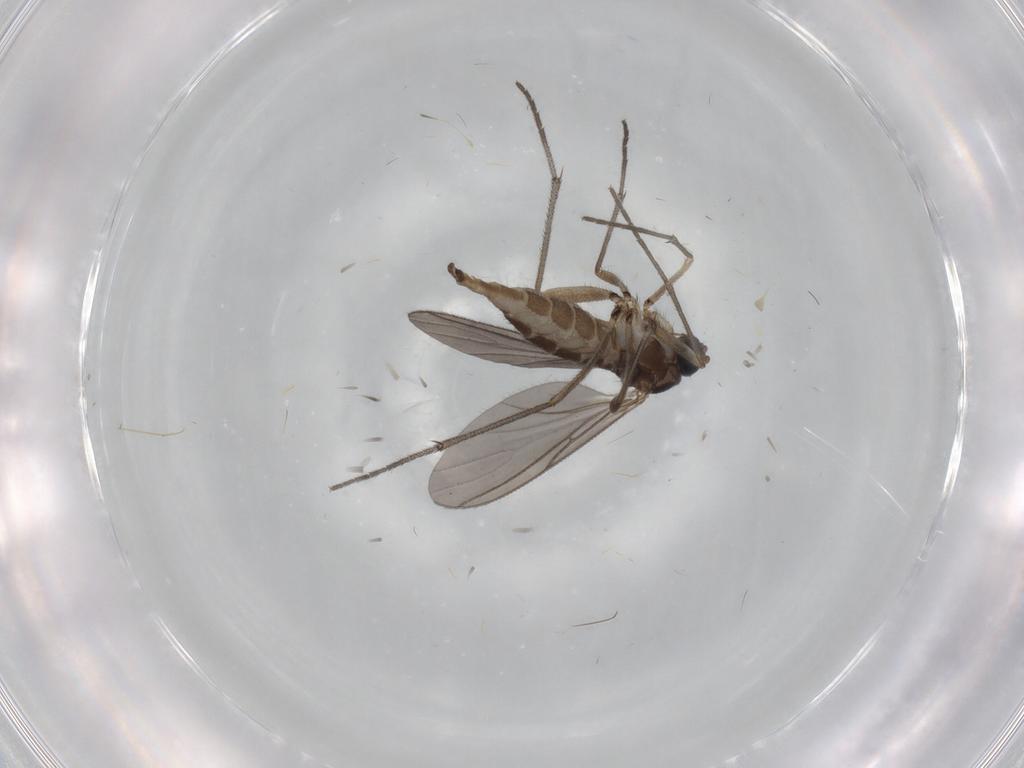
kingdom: Animalia
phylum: Arthropoda
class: Insecta
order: Diptera
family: Sciaridae
